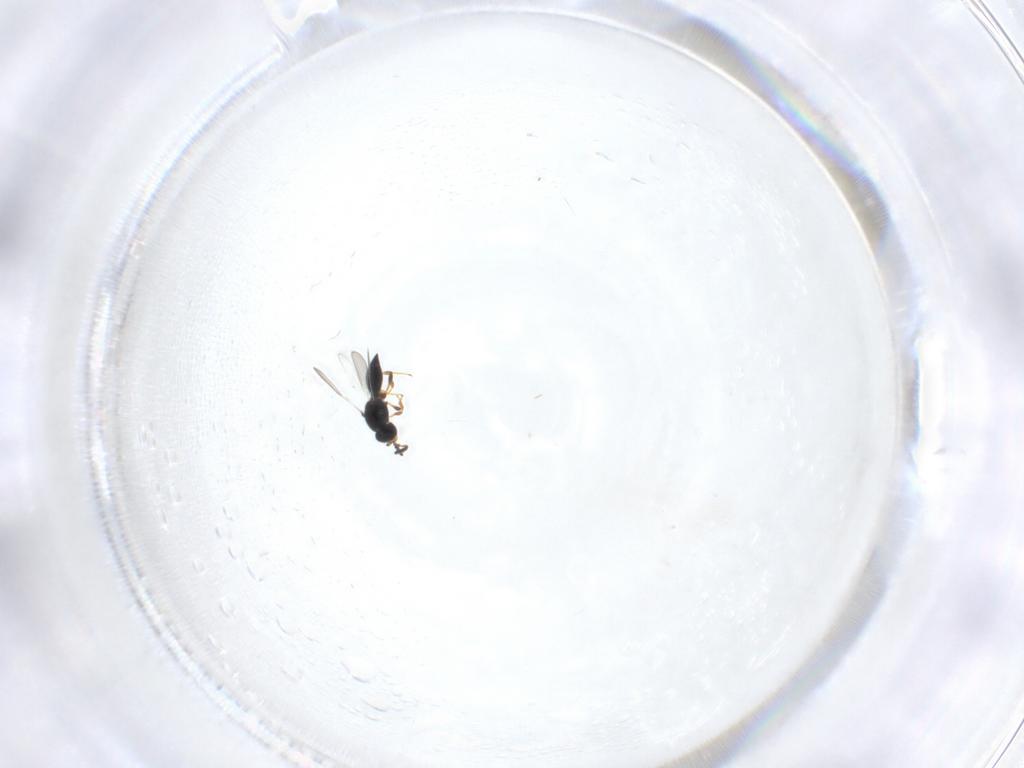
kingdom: Animalia
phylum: Arthropoda
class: Insecta
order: Hymenoptera
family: Platygastridae
